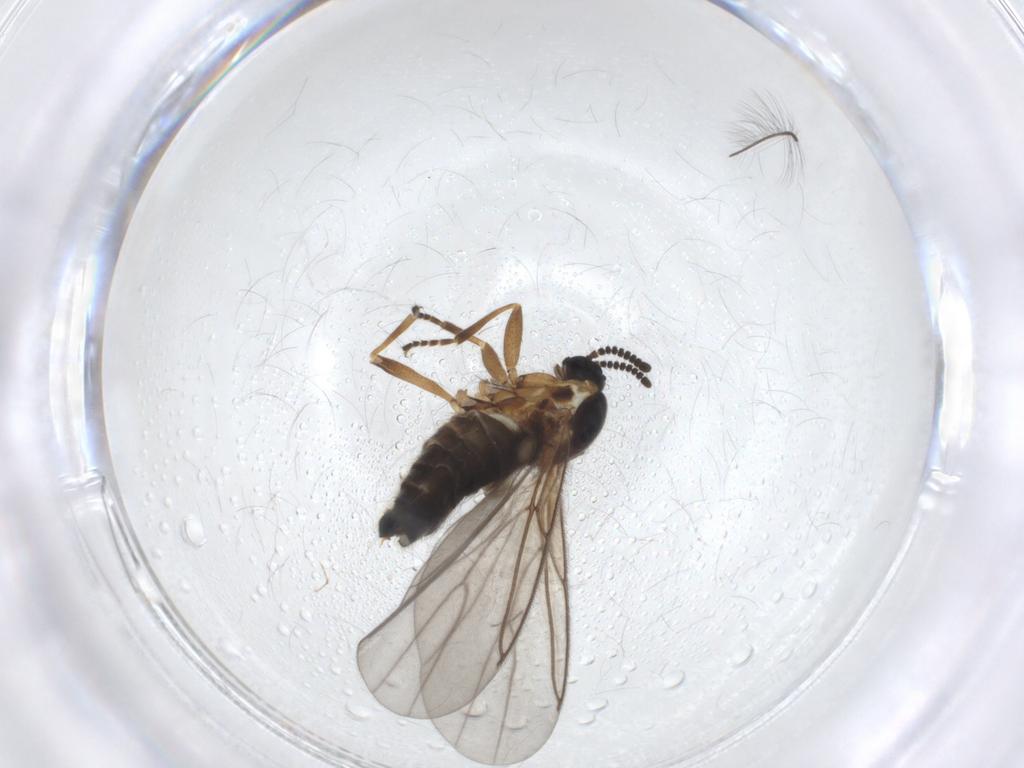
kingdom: Animalia
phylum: Arthropoda
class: Insecta
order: Diptera
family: Scatopsidae
